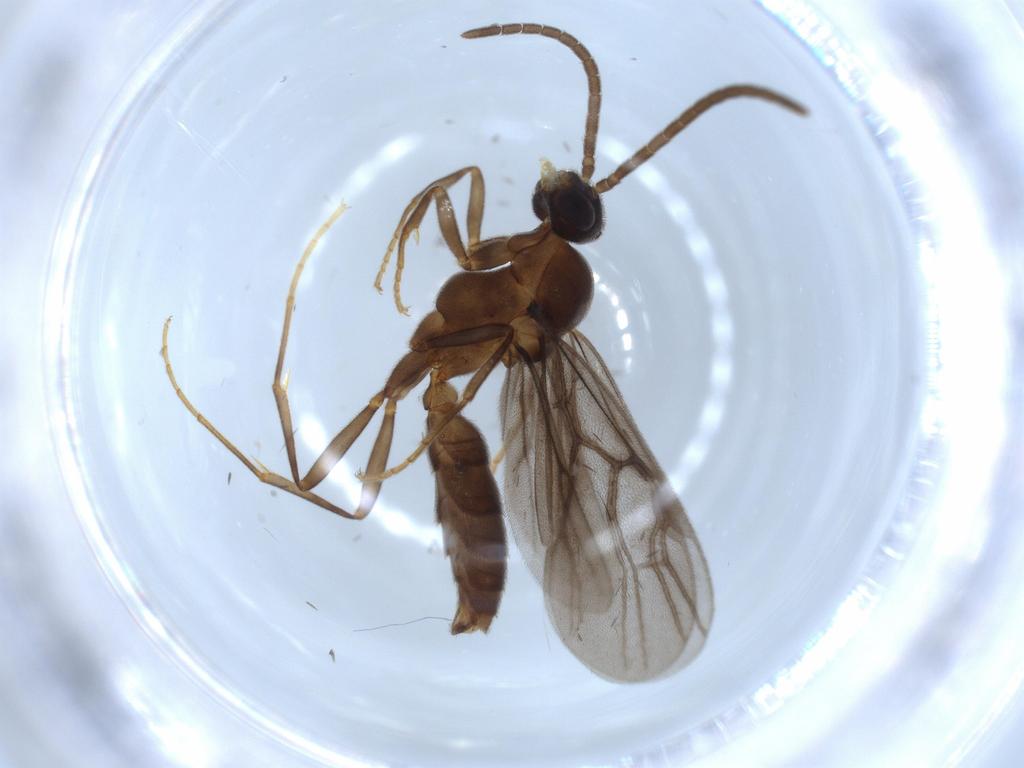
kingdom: Animalia
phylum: Arthropoda
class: Insecta
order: Hymenoptera
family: Formicidae
